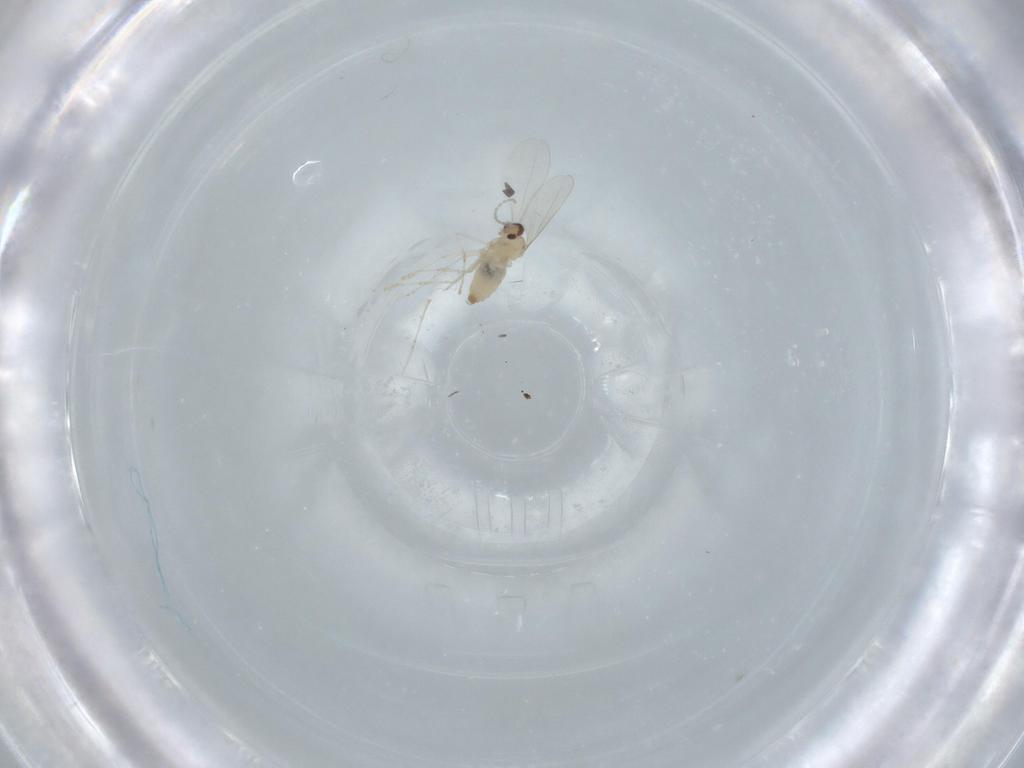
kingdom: Animalia
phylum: Arthropoda
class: Insecta
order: Diptera
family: Cecidomyiidae
